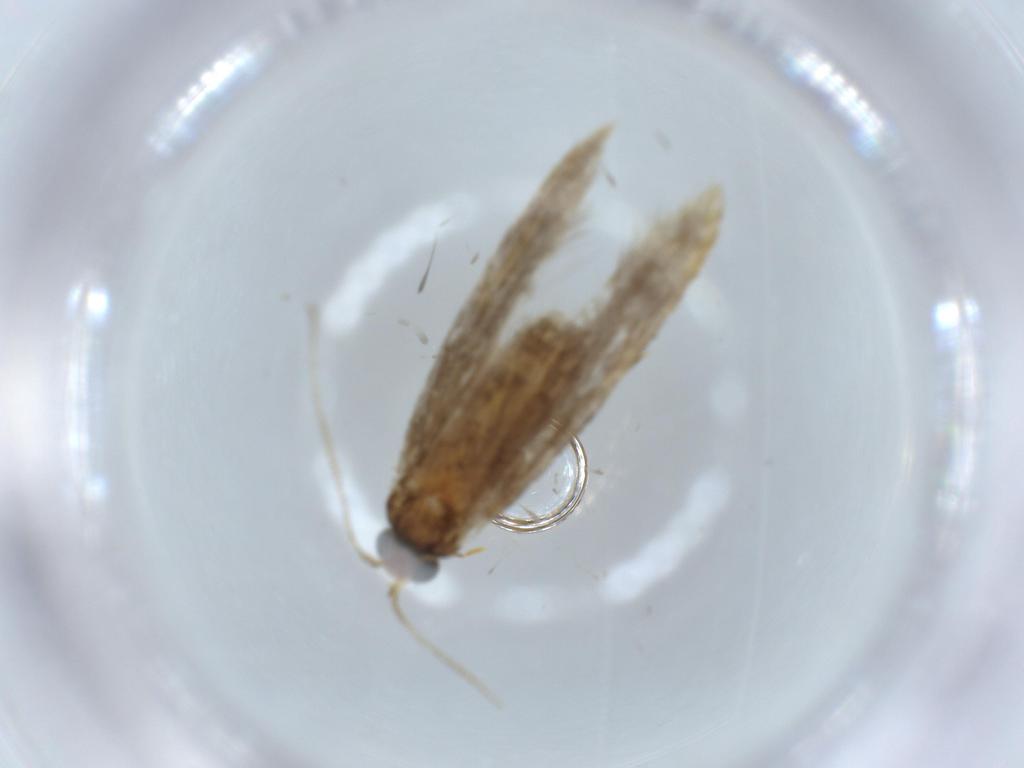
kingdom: Animalia
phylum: Arthropoda
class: Insecta
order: Lepidoptera
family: Tineidae
